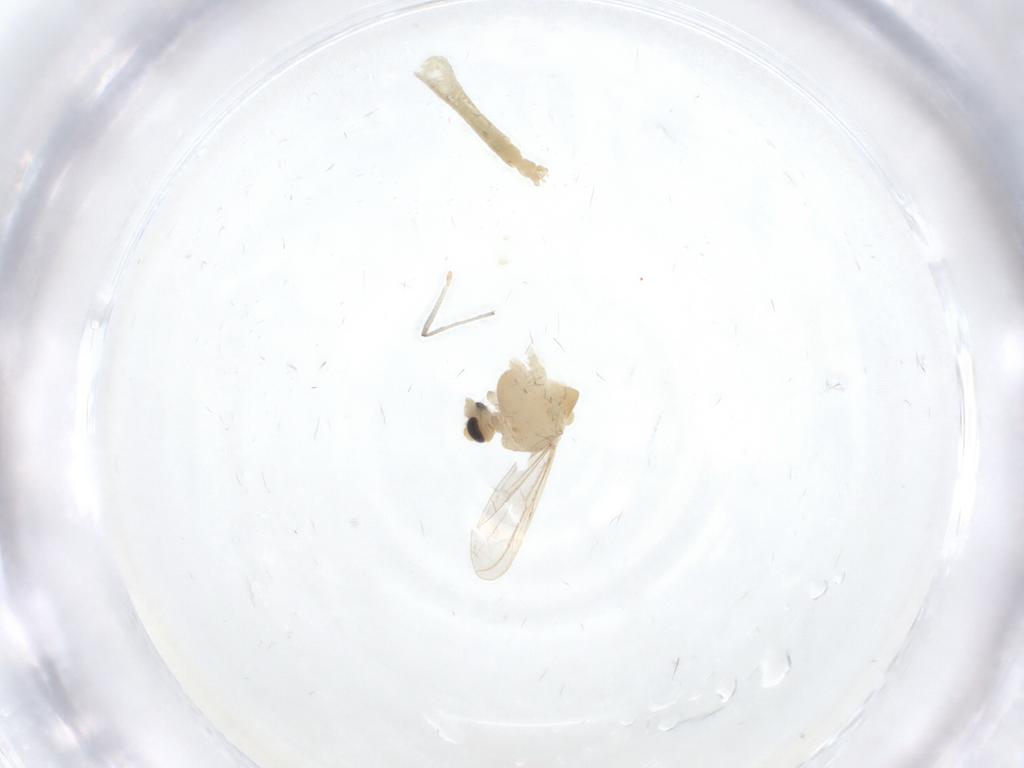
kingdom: Animalia
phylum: Arthropoda
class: Insecta
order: Diptera
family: Chironomidae
